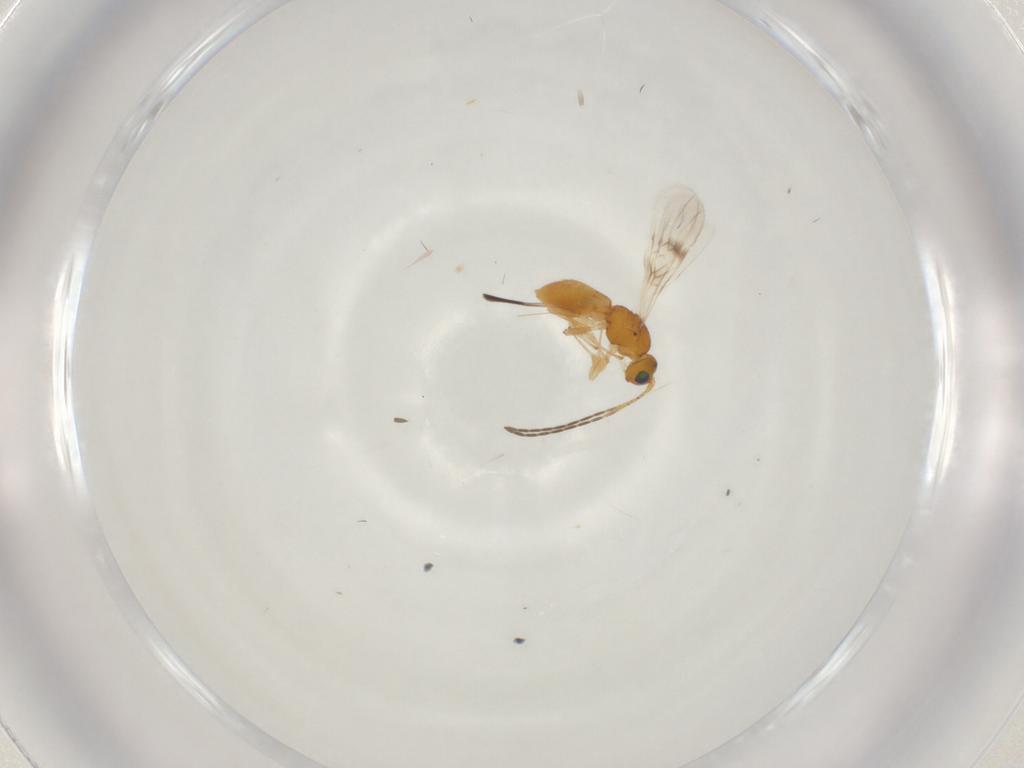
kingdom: Animalia
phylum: Arthropoda
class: Insecta
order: Hymenoptera
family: Braconidae
